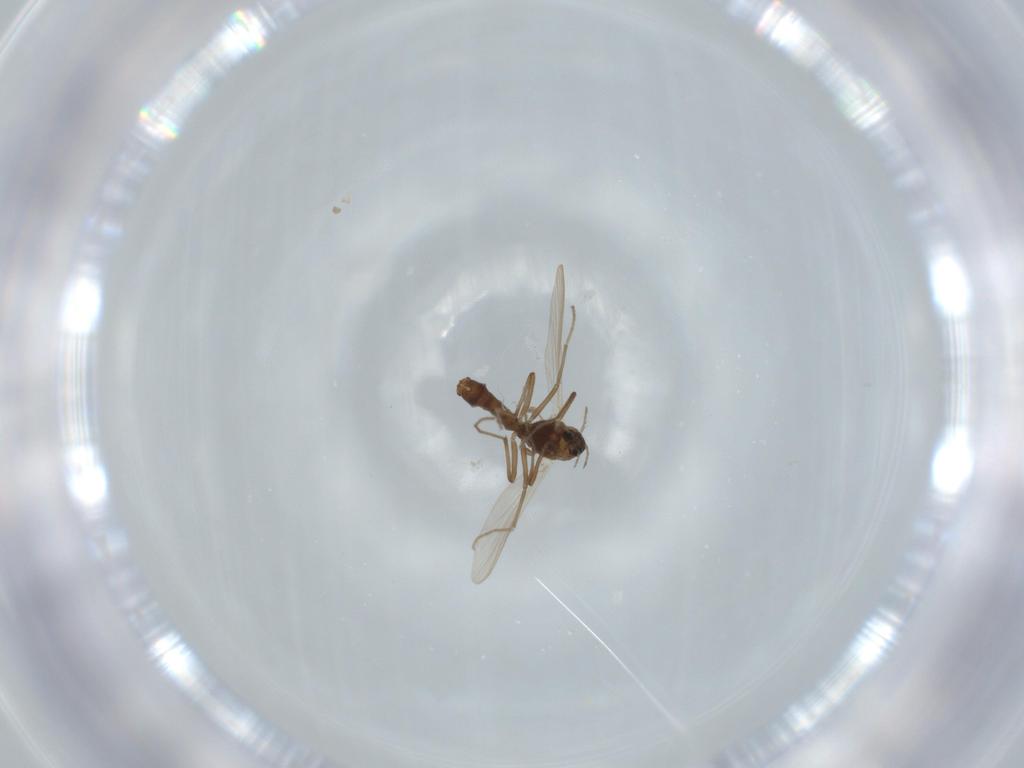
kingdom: Animalia
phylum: Arthropoda
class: Insecta
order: Diptera
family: Chironomidae
